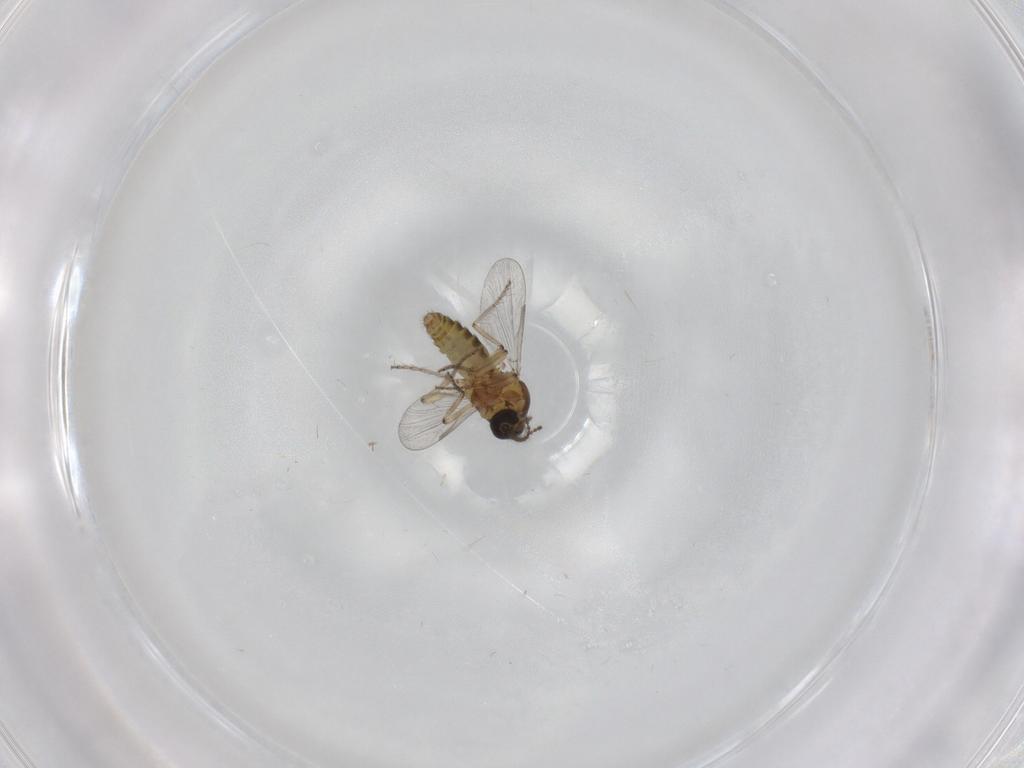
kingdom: Animalia
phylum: Arthropoda
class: Insecta
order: Diptera
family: Ceratopogonidae
